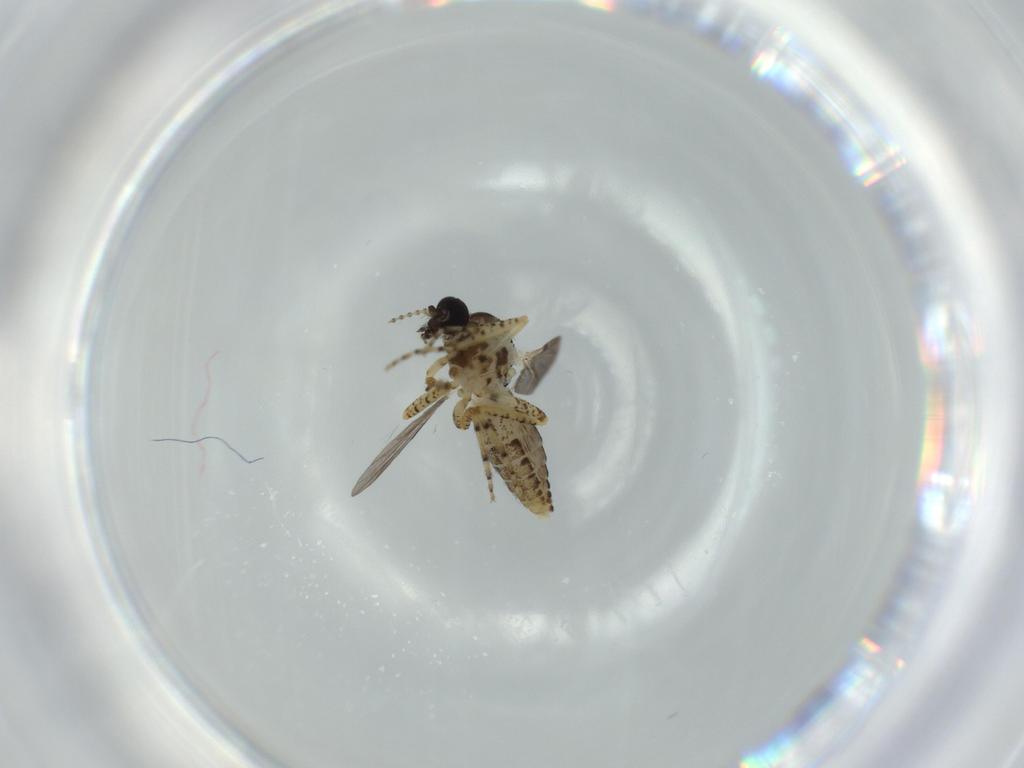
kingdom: Animalia
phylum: Arthropoda
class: Insecta
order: Diptera
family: Ceratopogonidae
